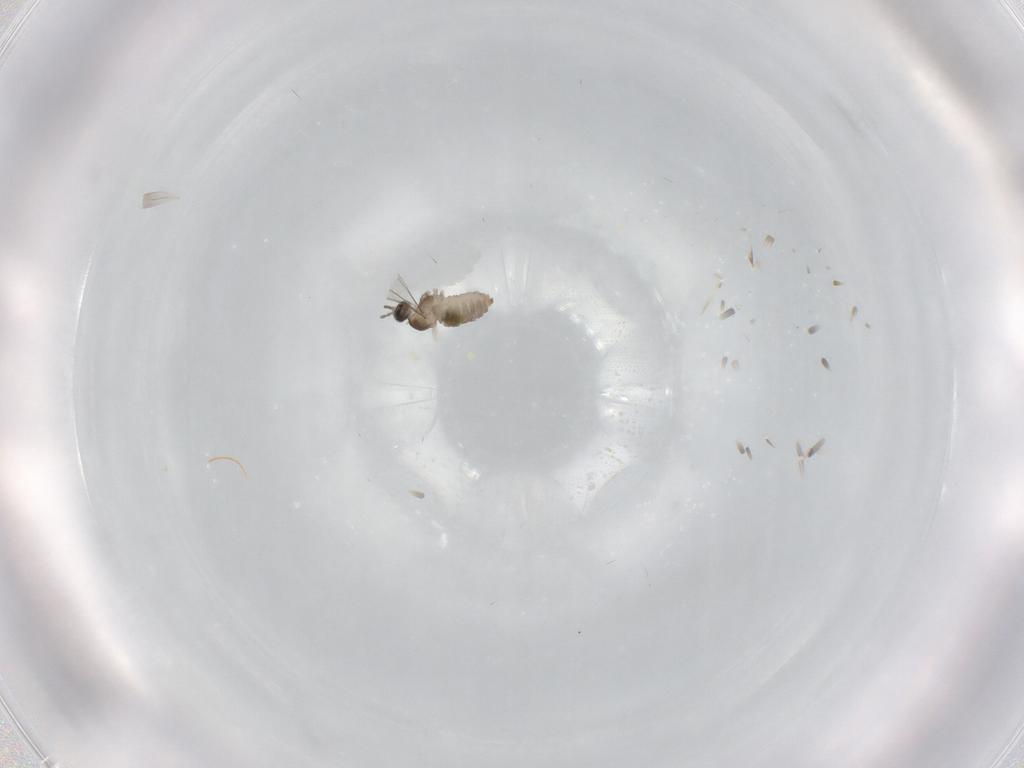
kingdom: Animalia
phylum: Arthropoda
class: Insecta
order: Diptera
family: Cecidomyiidae
